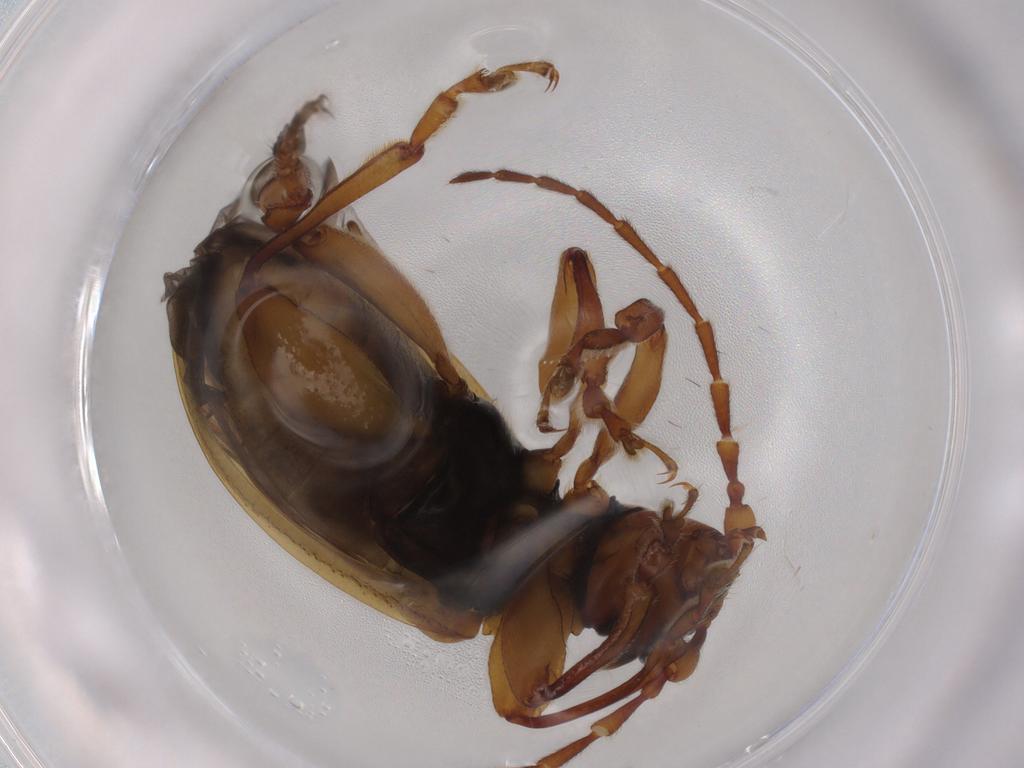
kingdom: Animalia
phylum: Arthropoda
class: Insecta
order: Coleoptera
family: Chrysomelidae
